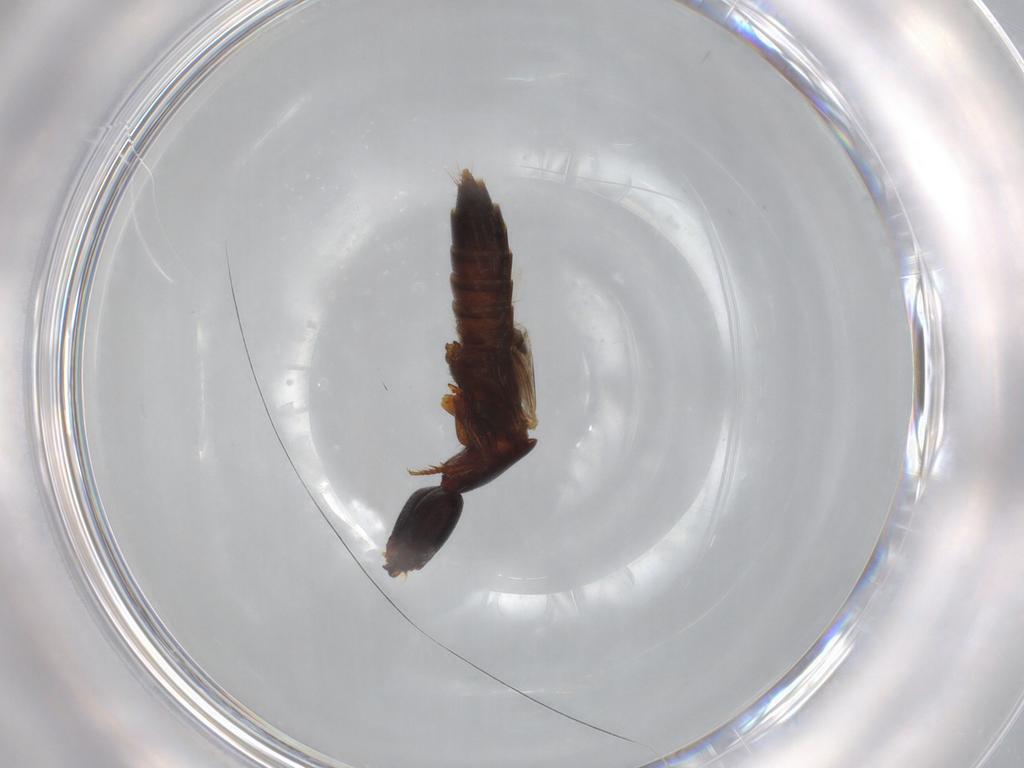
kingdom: Animalia
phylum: Arthropoda
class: Insecta
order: Coleoptera
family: Staphylinidae
